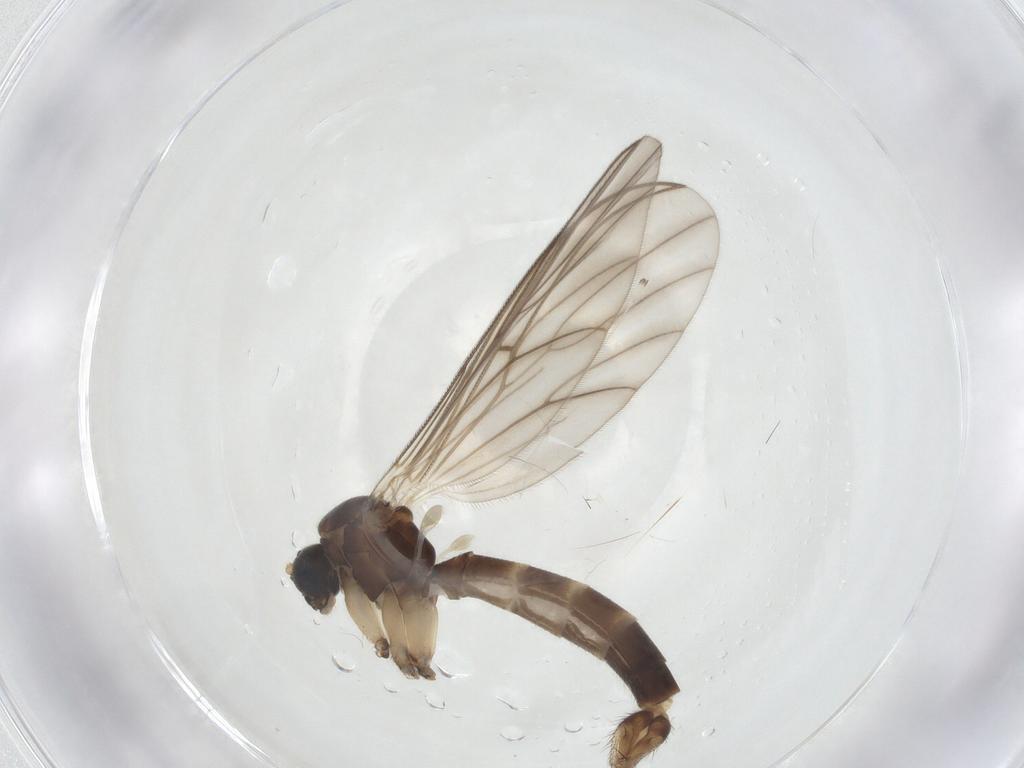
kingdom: Animalia
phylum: Arthropoda
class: Insecta
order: Diptera
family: Mycetophilidae
